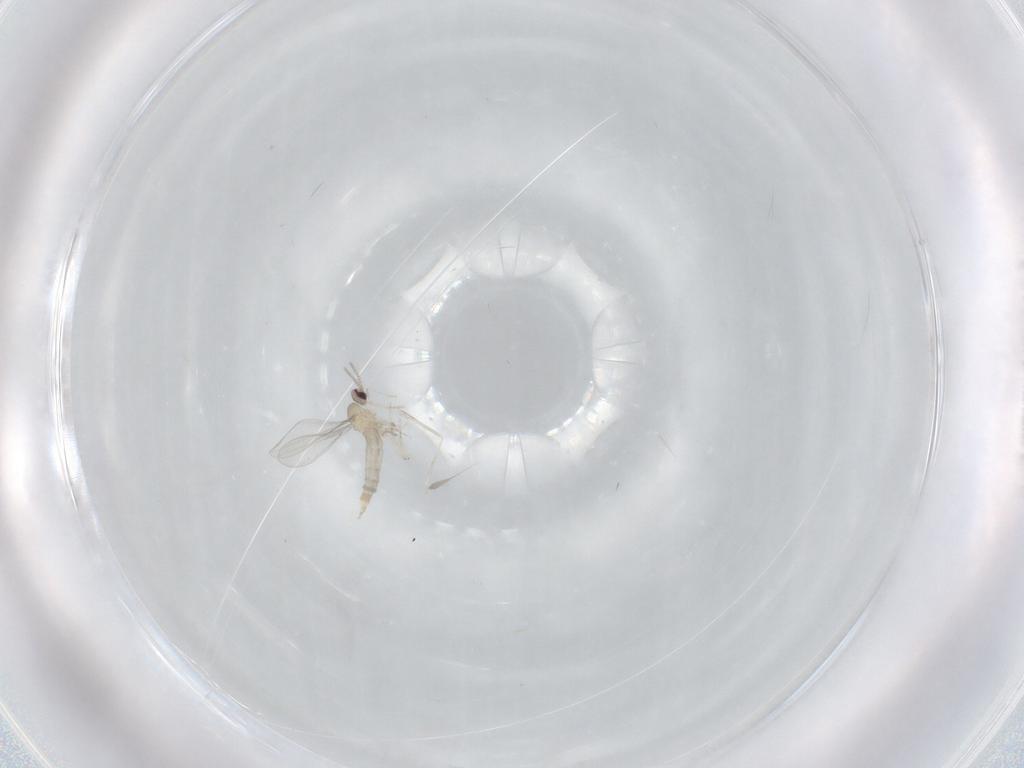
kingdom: Animalia
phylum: Arthropoda
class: Insecta
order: Diptera
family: Cecidomyiidae
